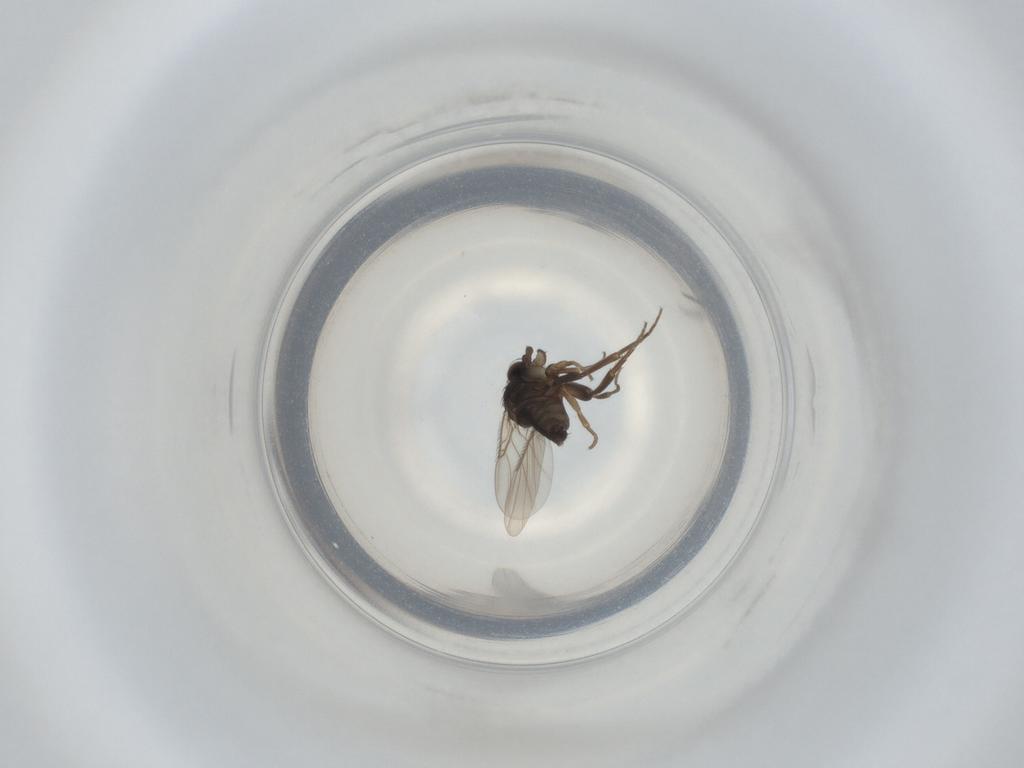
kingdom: Animalia
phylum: Arthropoda
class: Insecta
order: Diptera
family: Phoridae
